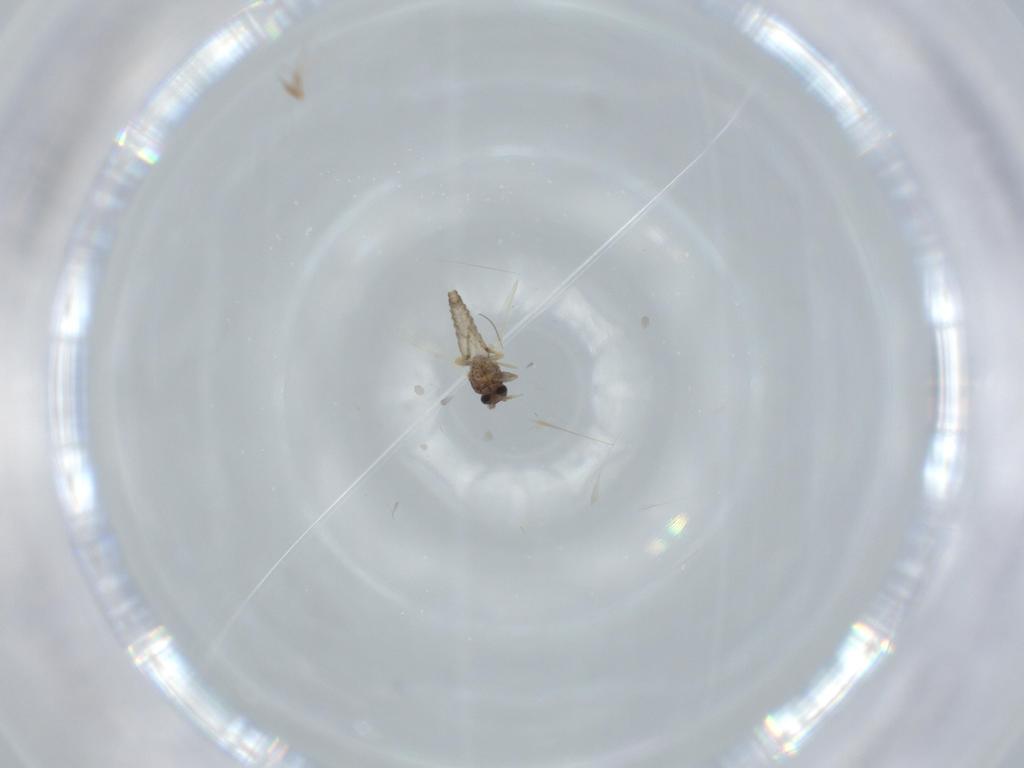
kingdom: Animalia
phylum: Arthropoda
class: Insecta
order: Diptera
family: Ceratopogonidae
